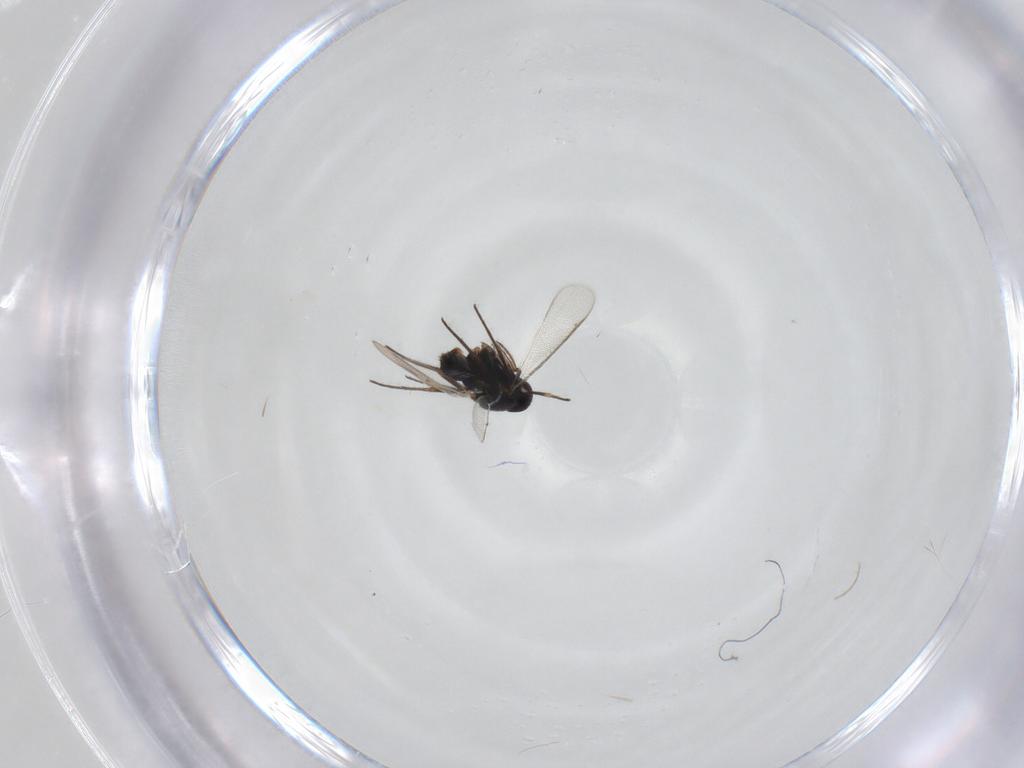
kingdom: Animalia
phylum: Arthropoda
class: Insecta
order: Hymenoptera
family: Eulophidae
